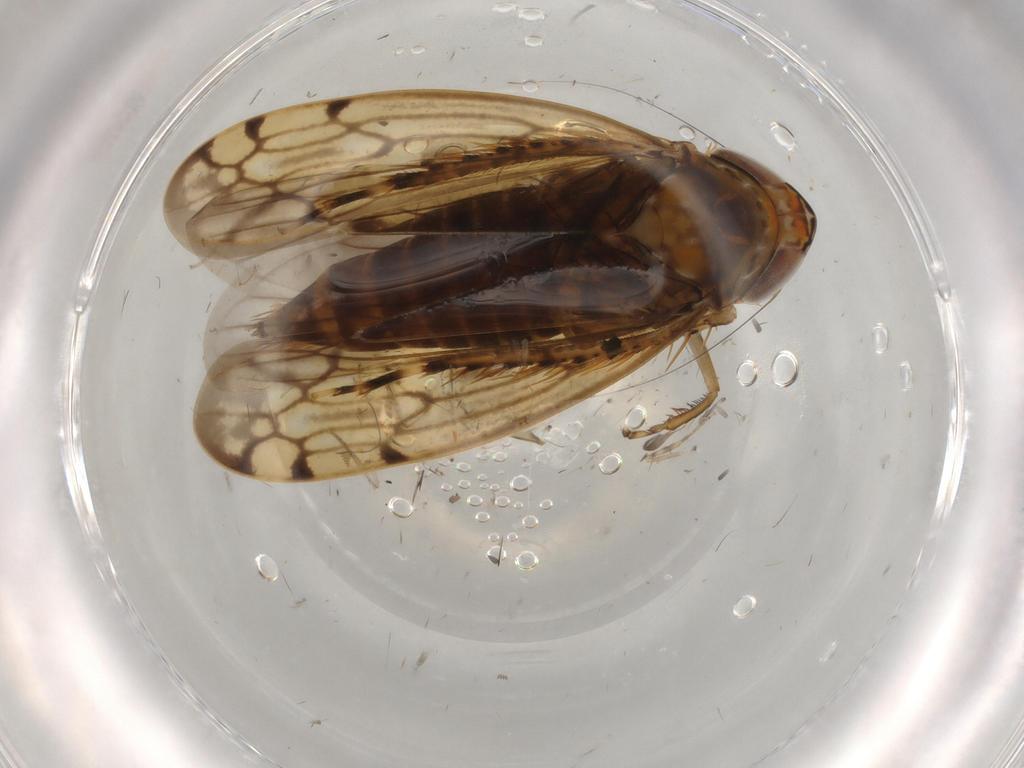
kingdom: Animalia
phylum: Arthropoda
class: Insecta
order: Hemiptera
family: Cicadellidae
